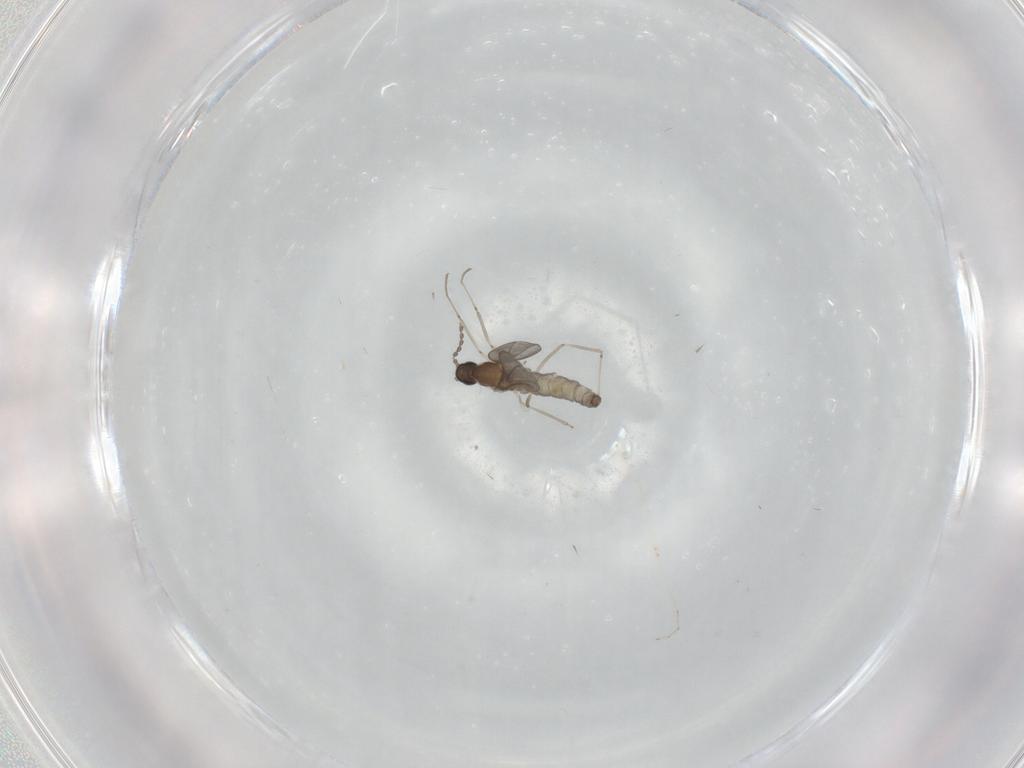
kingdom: Animalia
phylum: Arthropoda
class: Insecta
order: Diptera
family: Cecidomyiidae
